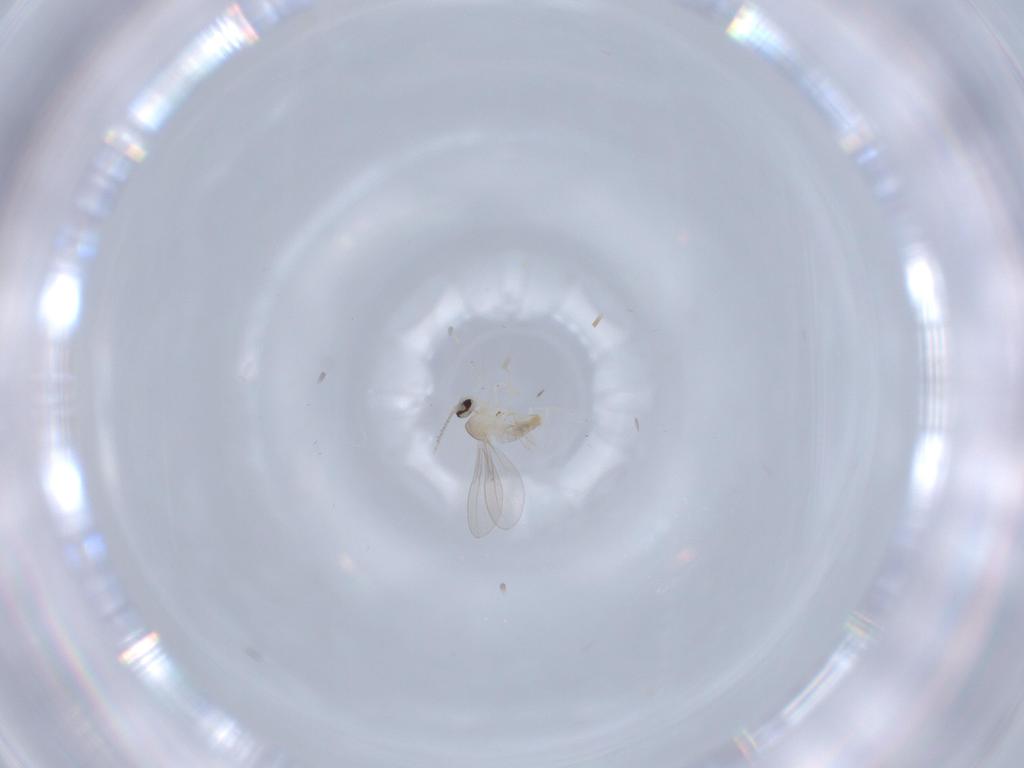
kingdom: Animalia
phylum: Arthropoda
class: Insecta
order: Diptera
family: Cecidomyiidae
